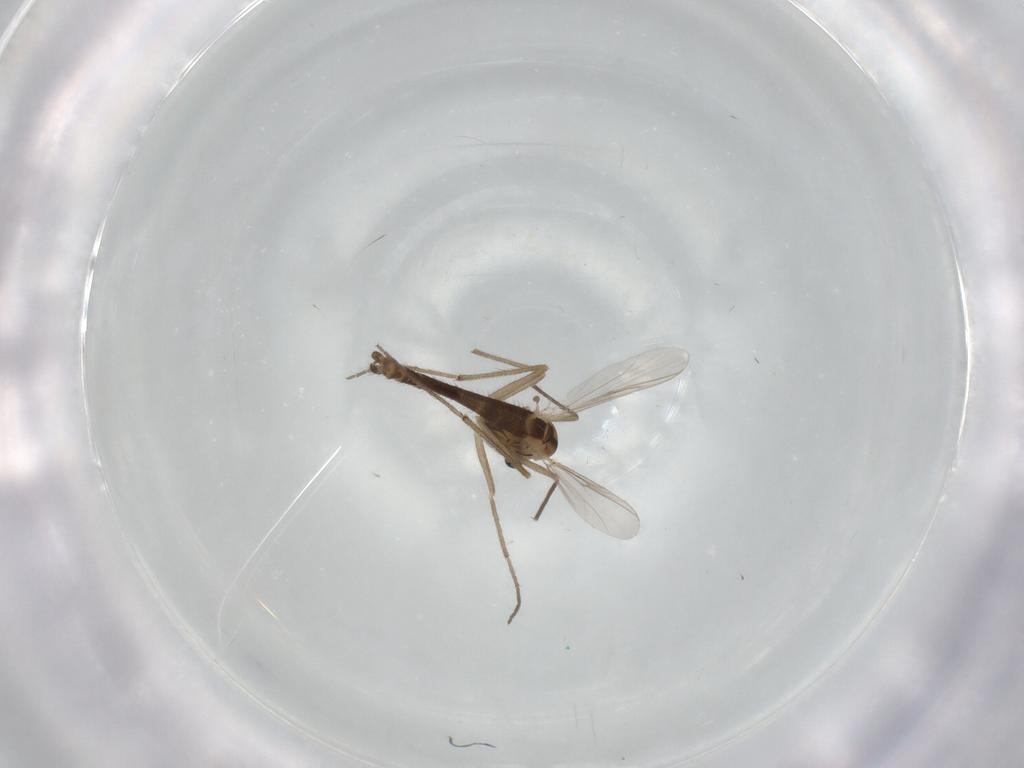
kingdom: Animalia
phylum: Arthropoda
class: Insecta
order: Diptera
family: Chironomidae
